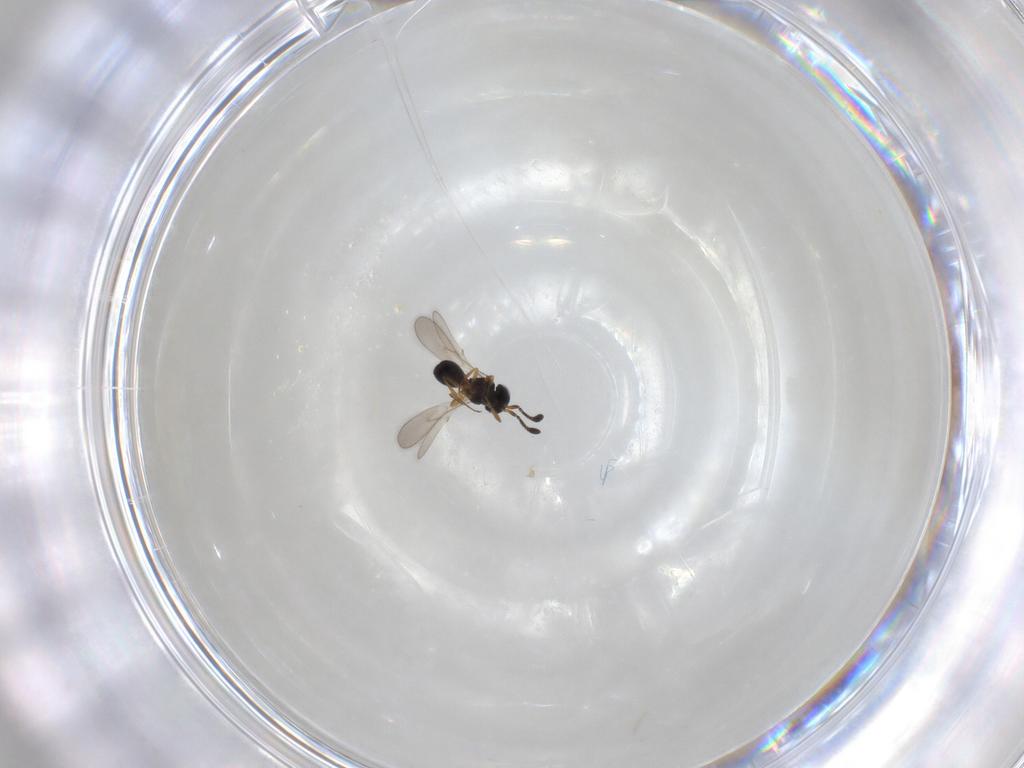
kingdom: Animalia
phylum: Arthropoda
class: Insecta
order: Hymenoptera
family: Scelionidae
